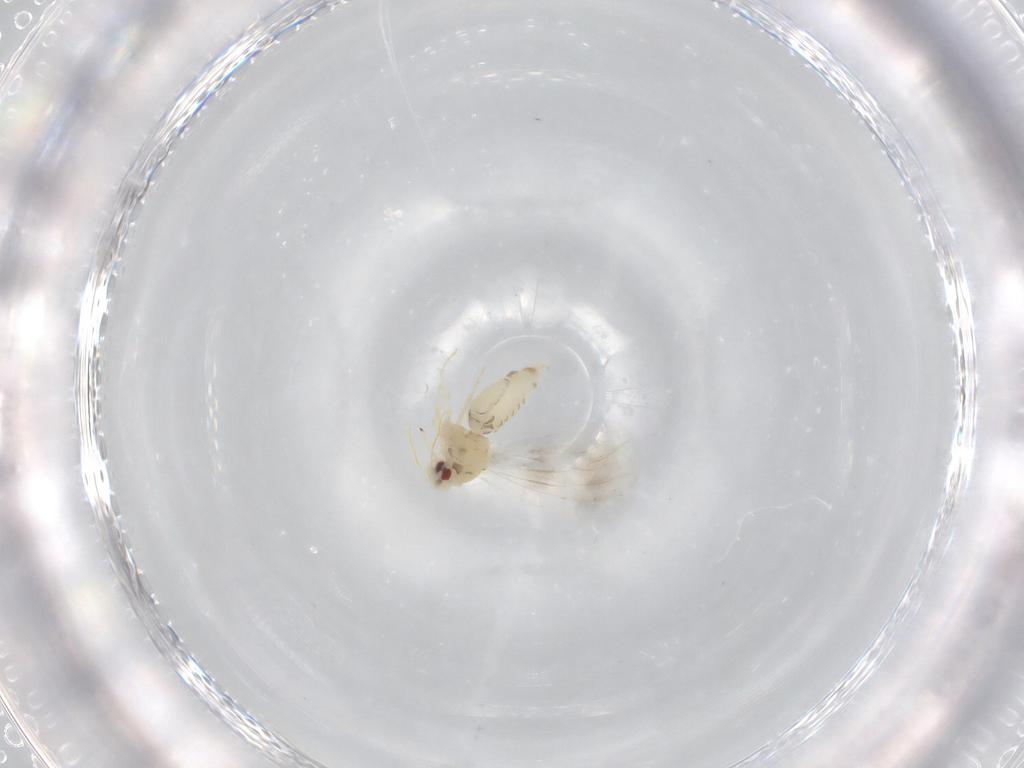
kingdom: Animalia
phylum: Arthropoda
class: Insecta
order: Hemiptera
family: Aleyrodidae
